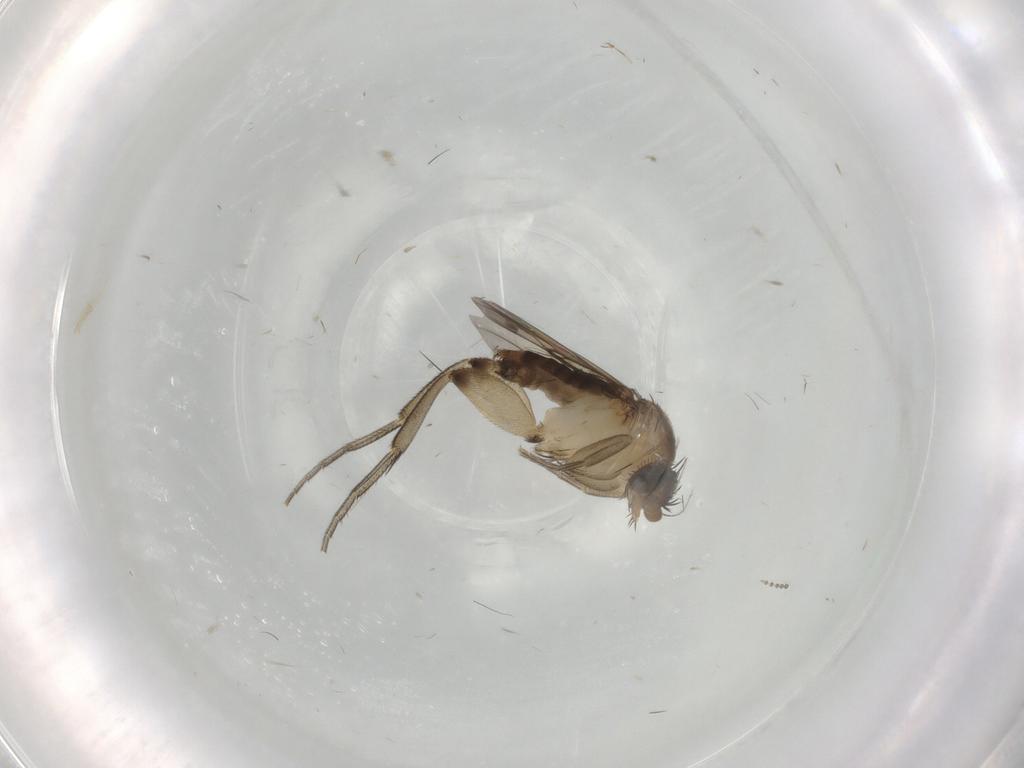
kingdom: Animalia
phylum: Arthropoda
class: Insecta
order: Diptera
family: Phoridae
